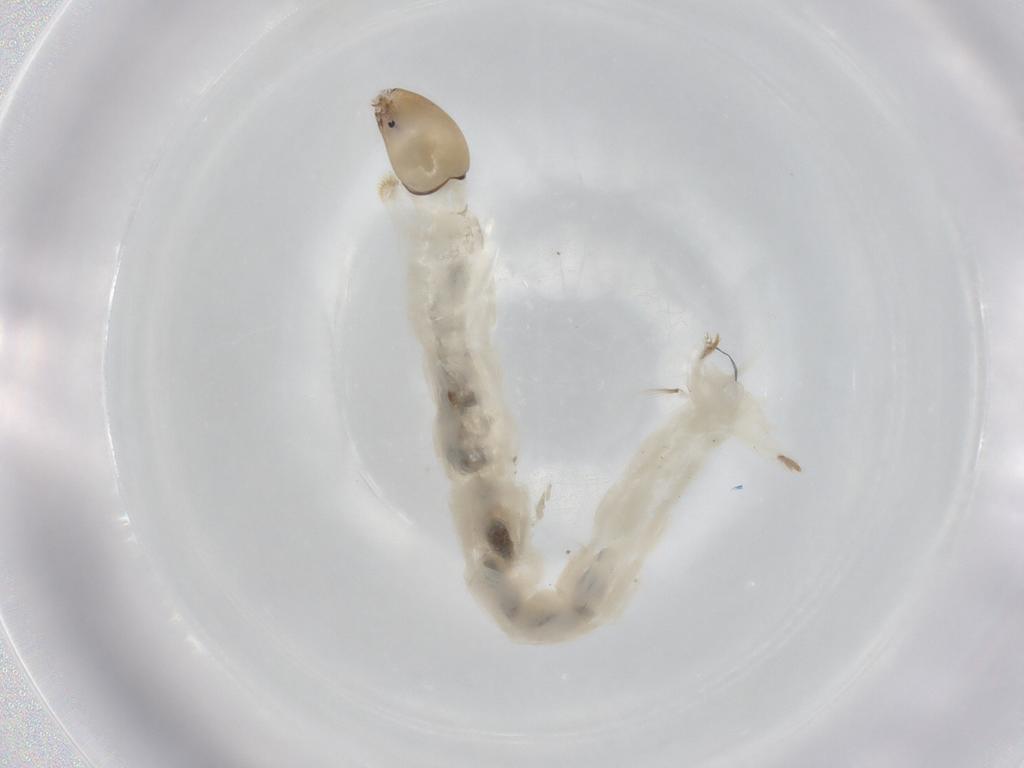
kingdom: Animalia
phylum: Arthropoda
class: Insecta
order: Diptera
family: Chironomidae
